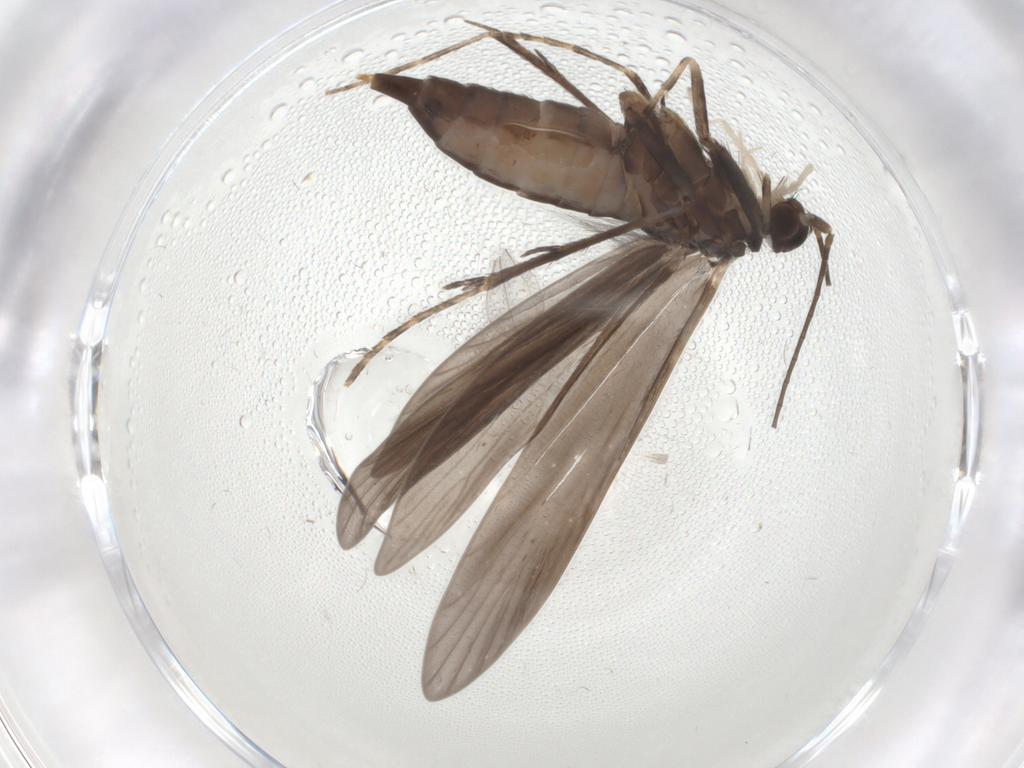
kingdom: Animalia
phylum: Arthropoda
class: Insecta
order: Trichoptera
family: Xiphocentronidae
